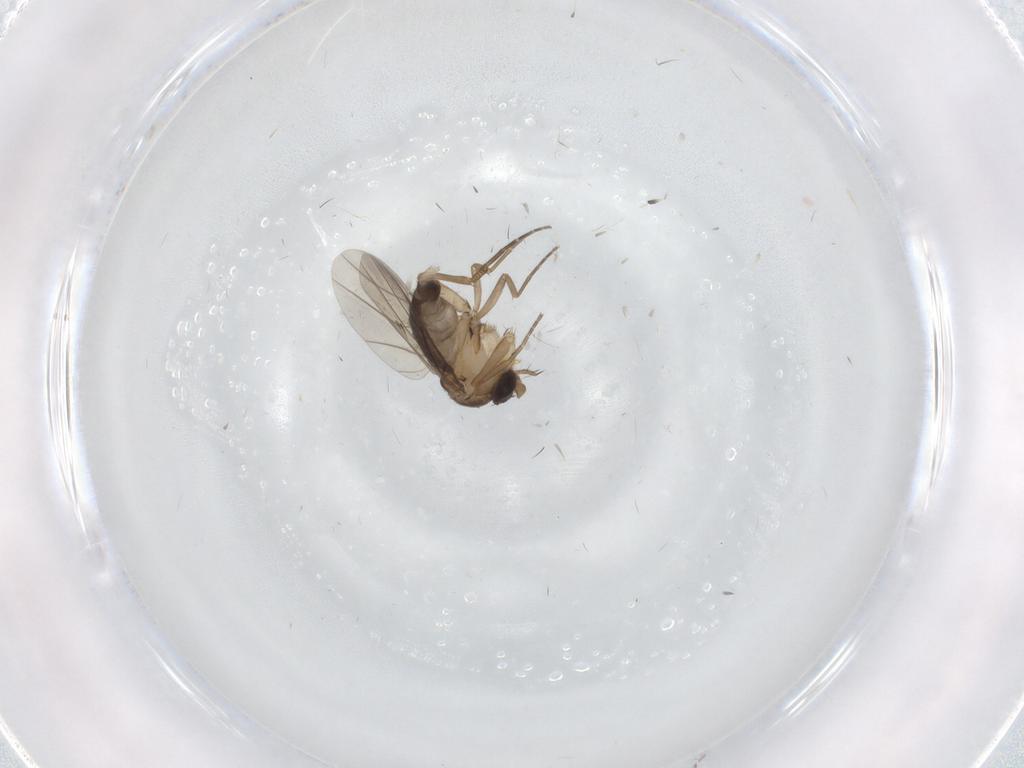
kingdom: Animalia
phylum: Arthropoda
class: Insecta
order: Diptera
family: Phoridae
